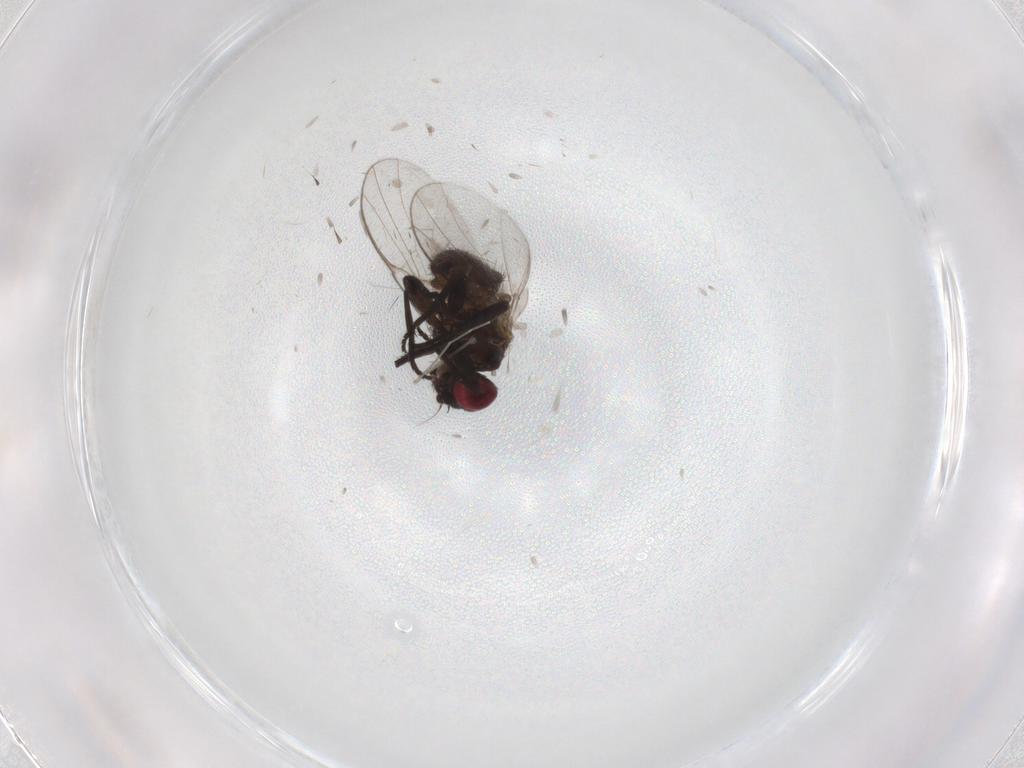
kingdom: Animalia
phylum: Arthropoda
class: Insecta
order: Diptera
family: Agromyzidae
